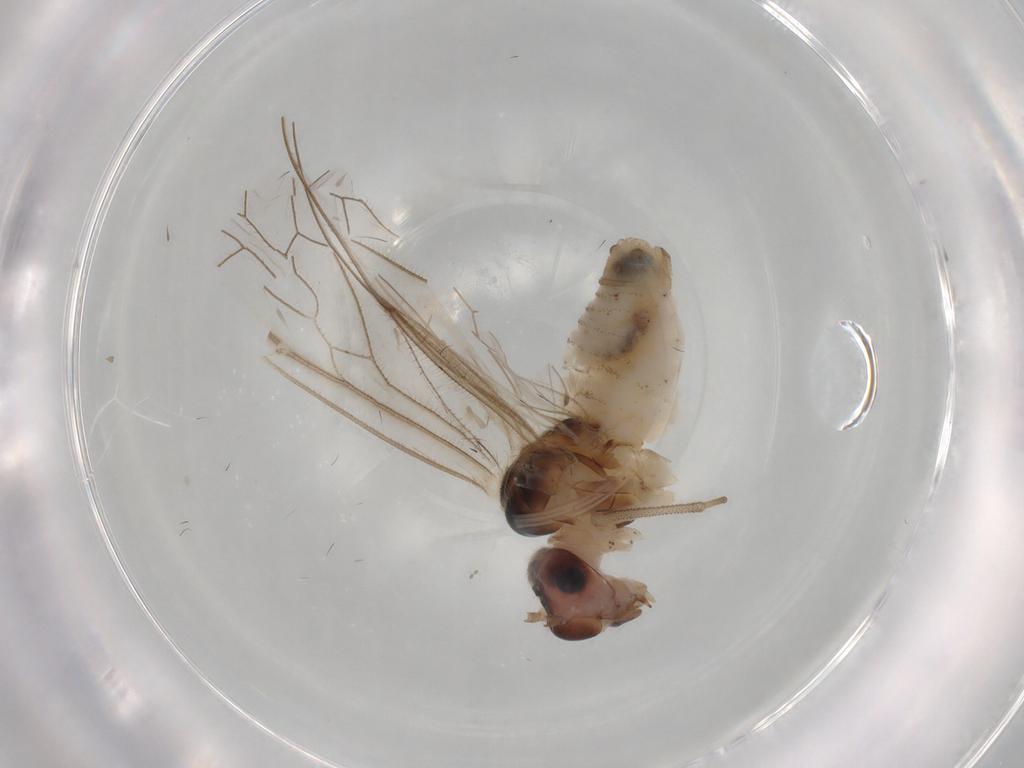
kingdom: Animalia
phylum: Arthropoda
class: Insecta
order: Psocodea
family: Stenopsocidae
